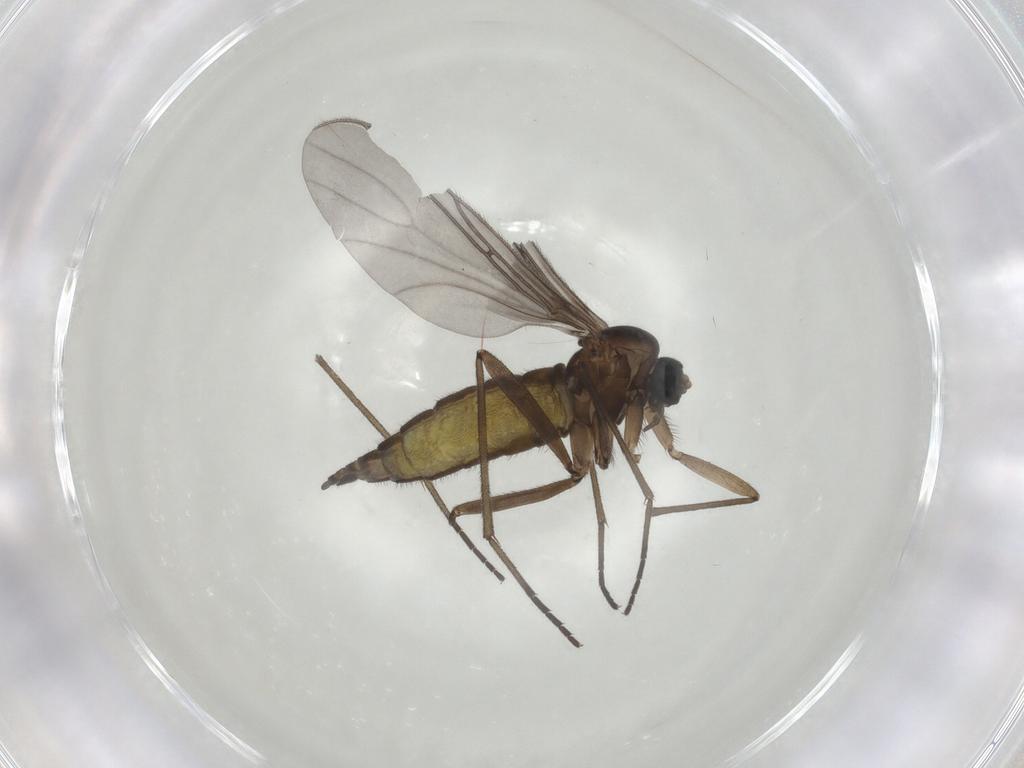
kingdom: Animalia
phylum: Arthropoda
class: Insecta
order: Diptera
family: Sciaridae
